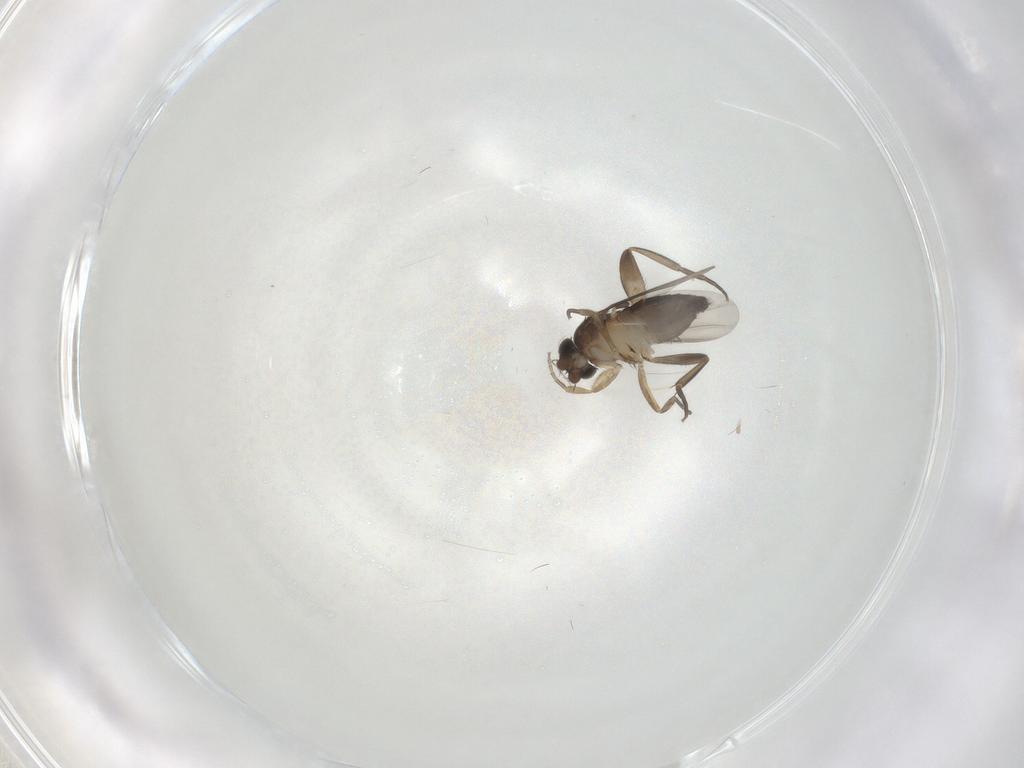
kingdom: Animalia
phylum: Arthropoda
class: Insecta
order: Diptera
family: Phoridae
